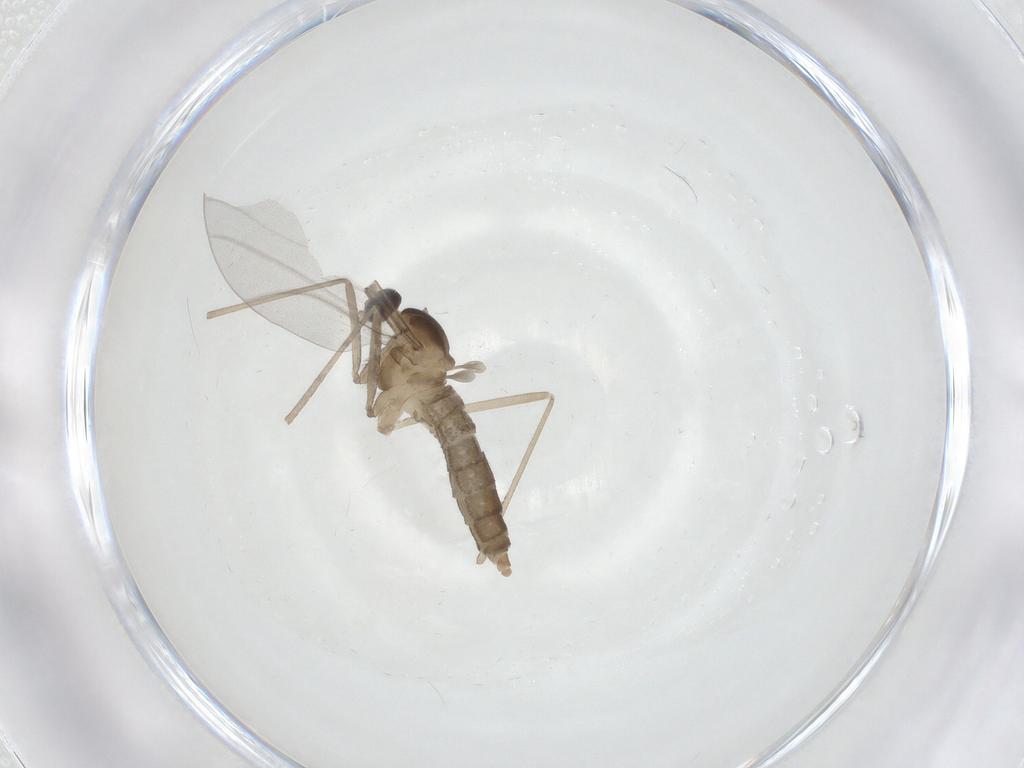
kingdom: Animalia
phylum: Arthropoda
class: Insecta
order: Diptera
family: Cecidomyiidae
